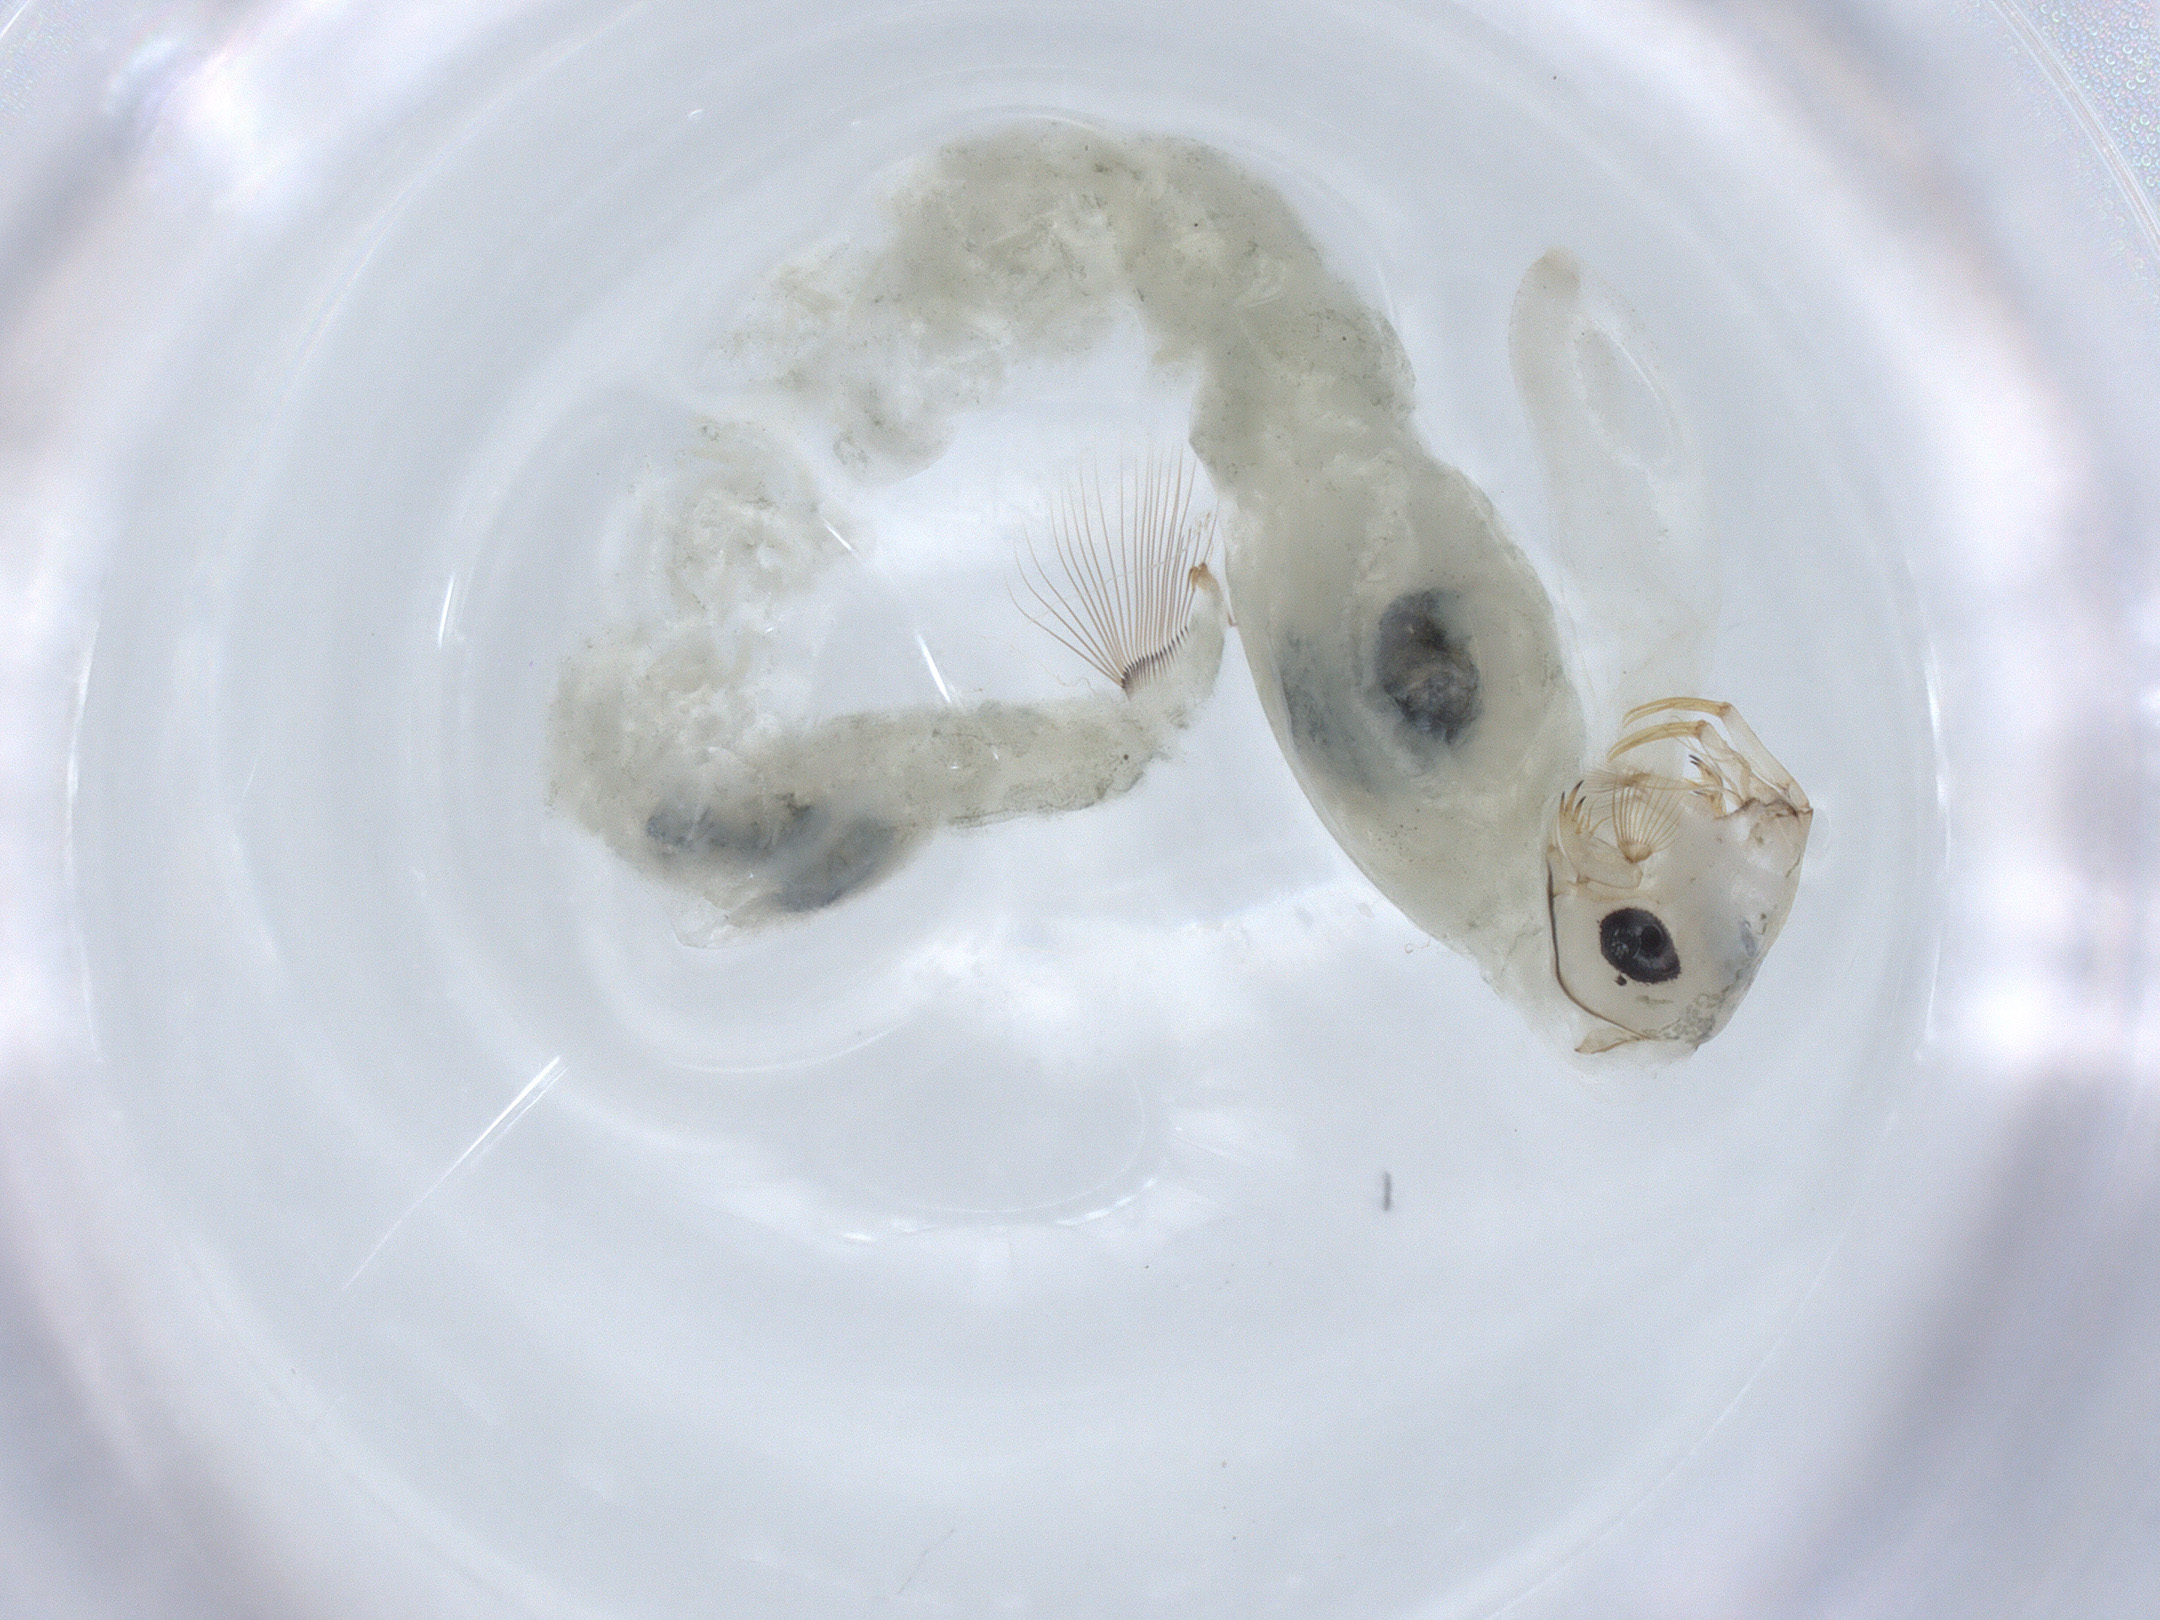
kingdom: Animalia
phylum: Arthropoda
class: Insecta
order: Diptera
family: Chaoboridae
